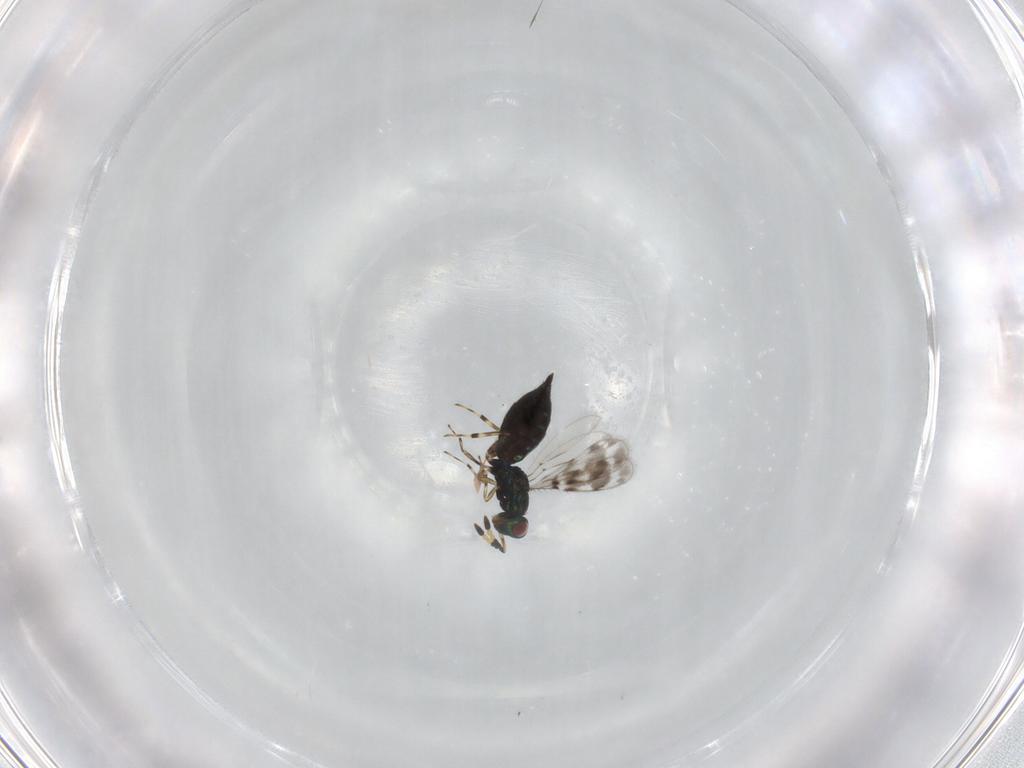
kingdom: Animalia
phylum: Arthropoda
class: Insecta
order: Hymenoptera
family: Eulophidae
